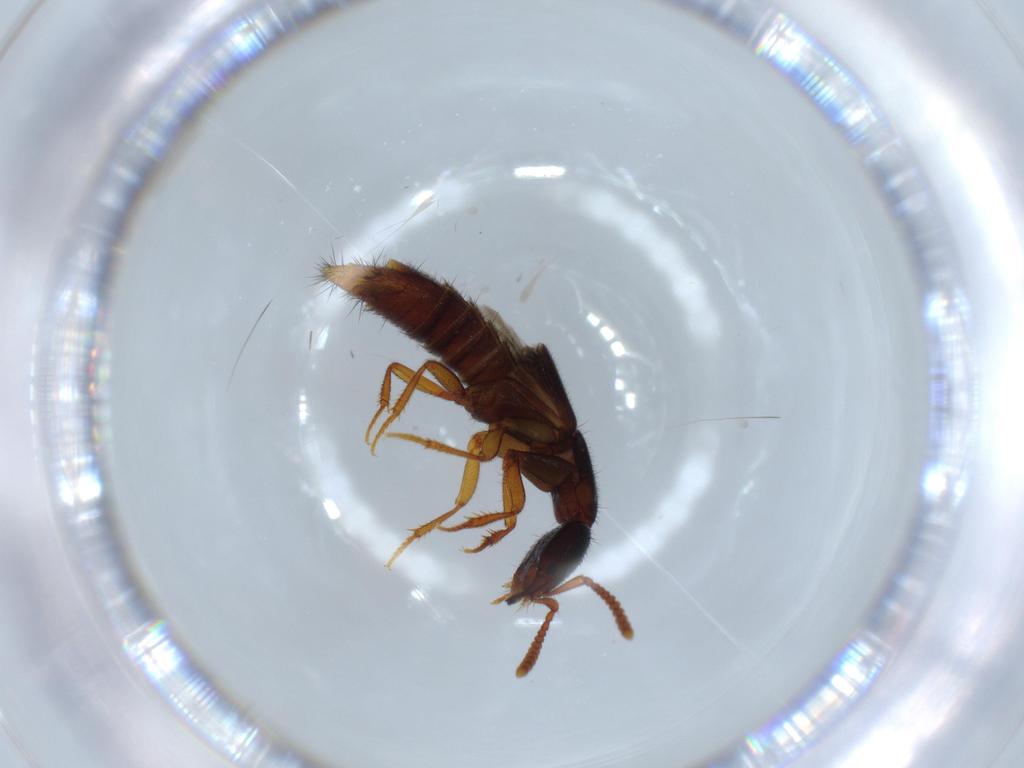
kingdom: Animalia
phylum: Arthropoda
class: Insecta
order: Coleoptera
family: Staphylinidae
